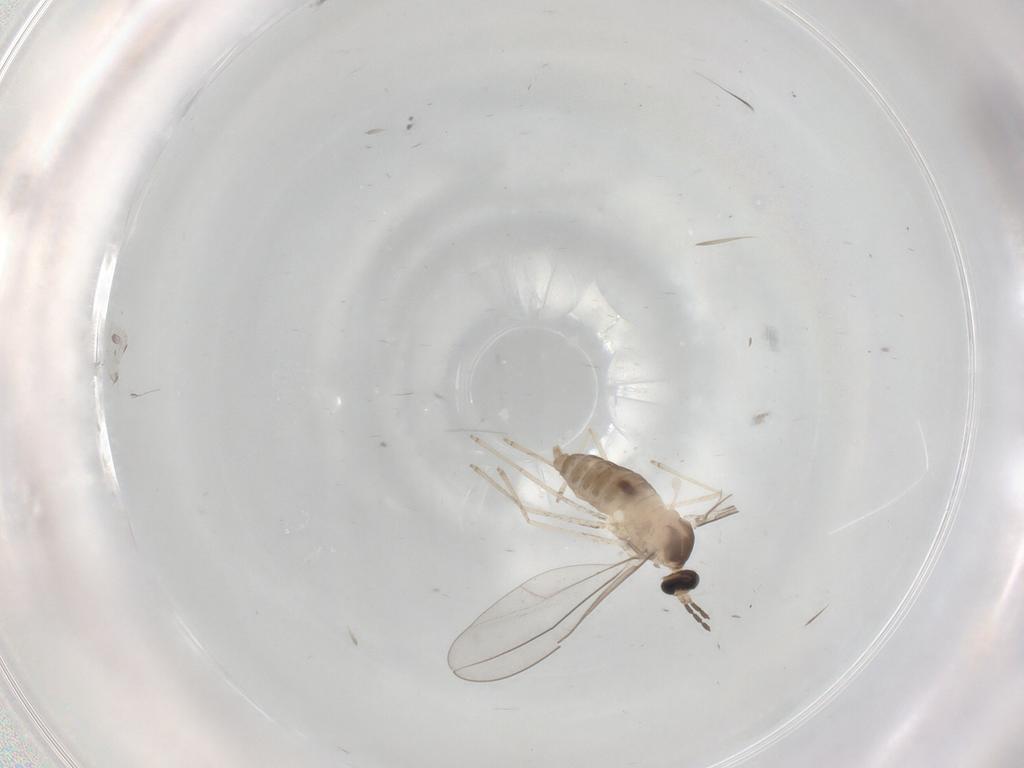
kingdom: Animalia
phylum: Arthropoda
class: Insecta
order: Diptera
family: Cecidomyiidae
